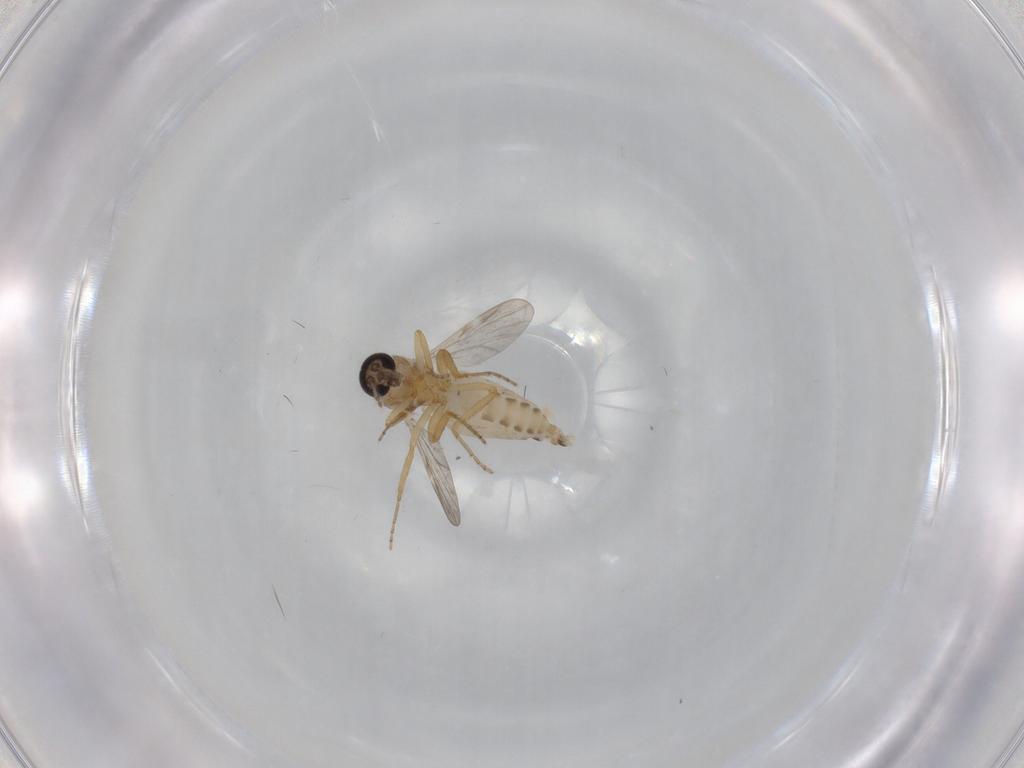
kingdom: Animalia
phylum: Arthropoda
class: Insecta
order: Diptera
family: Ceratopogonidae
